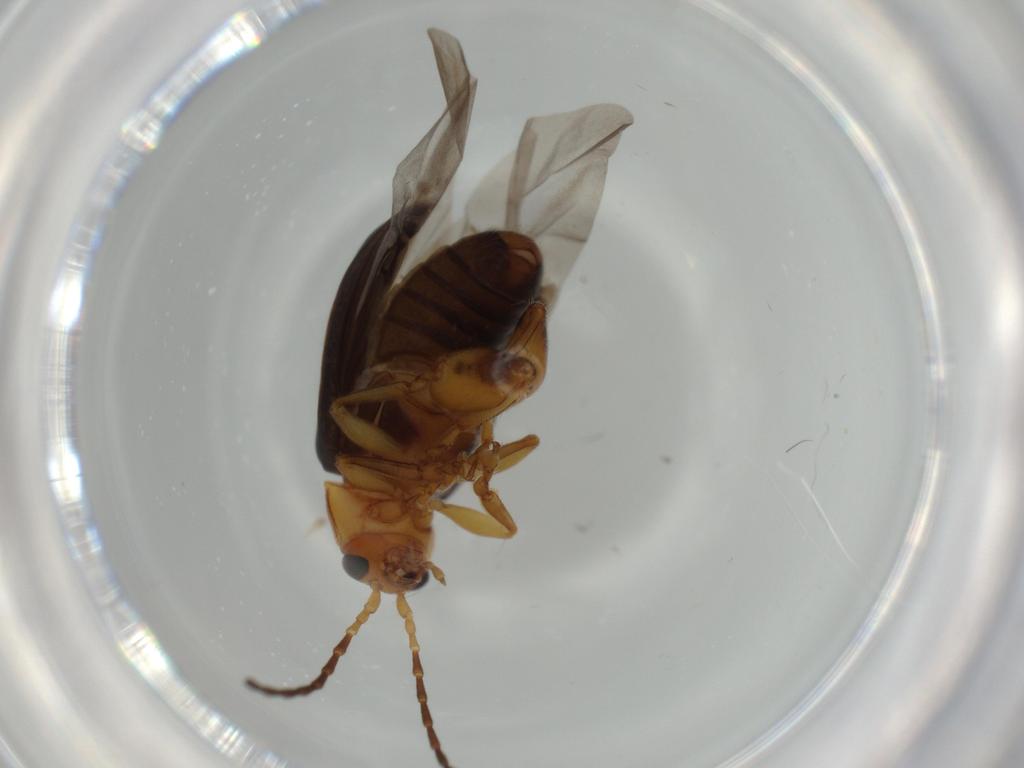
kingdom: Animalia
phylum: Arthropoda
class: Insecta
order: Coleoptera
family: Chrysomelidae
